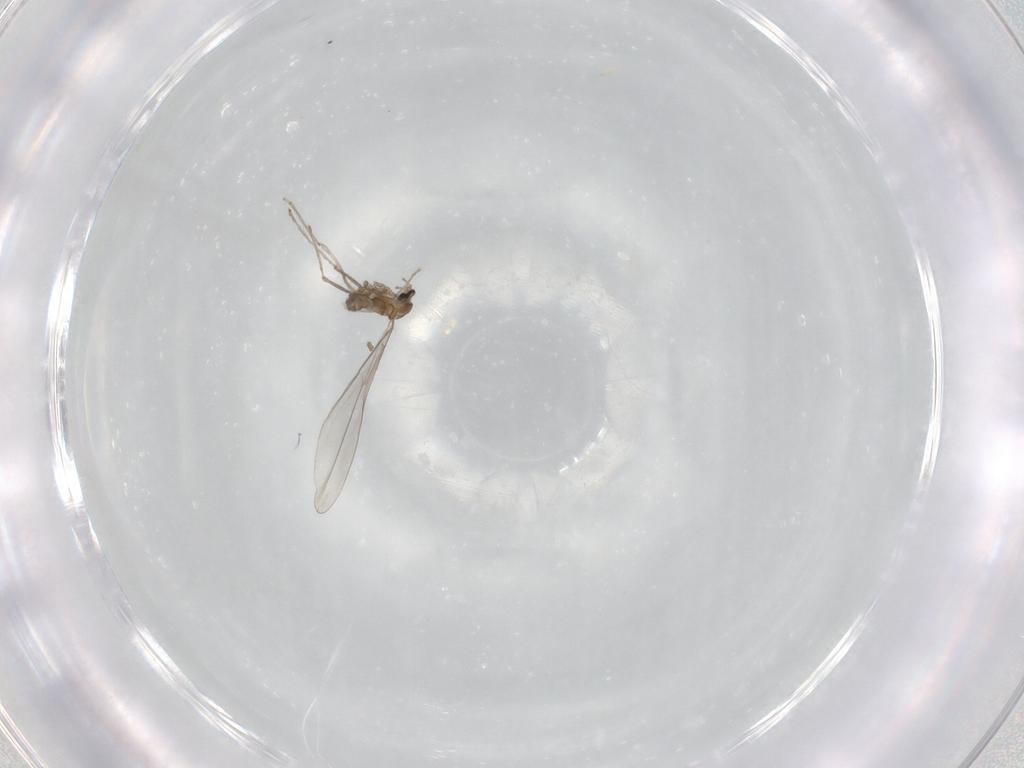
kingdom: Animalia
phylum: Arthropoda
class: Insecta
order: Diptera
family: Cecidomyiidae
